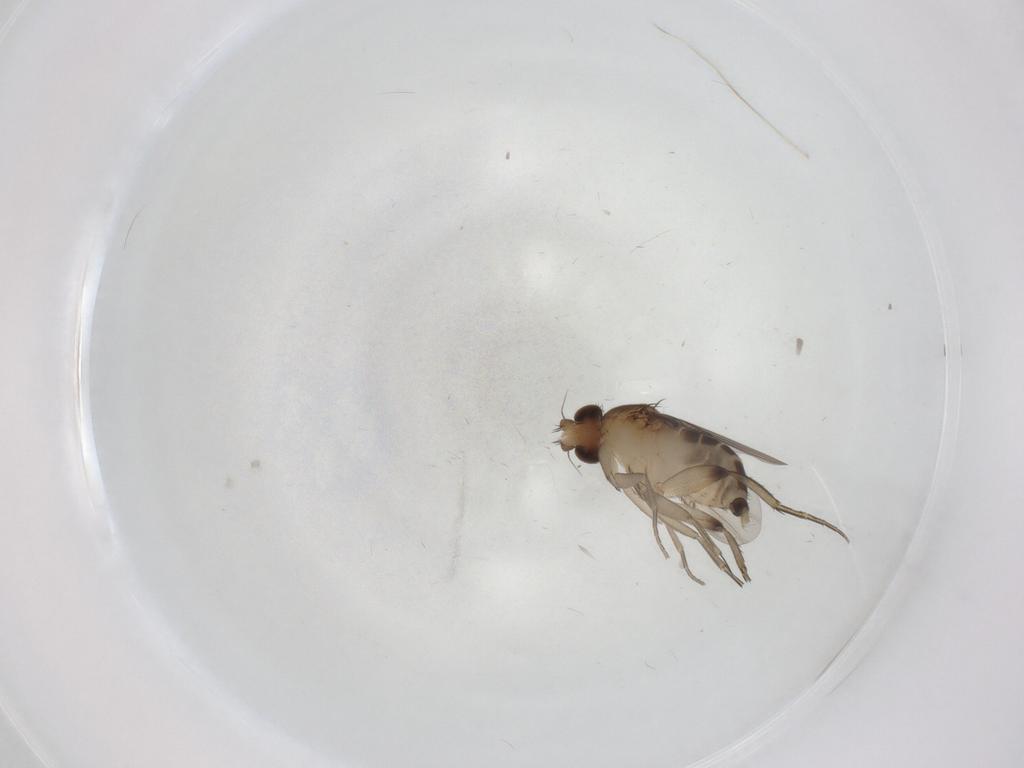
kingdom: Animalia
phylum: Arthropoda
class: Insecta
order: Diptera
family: Phoridae
